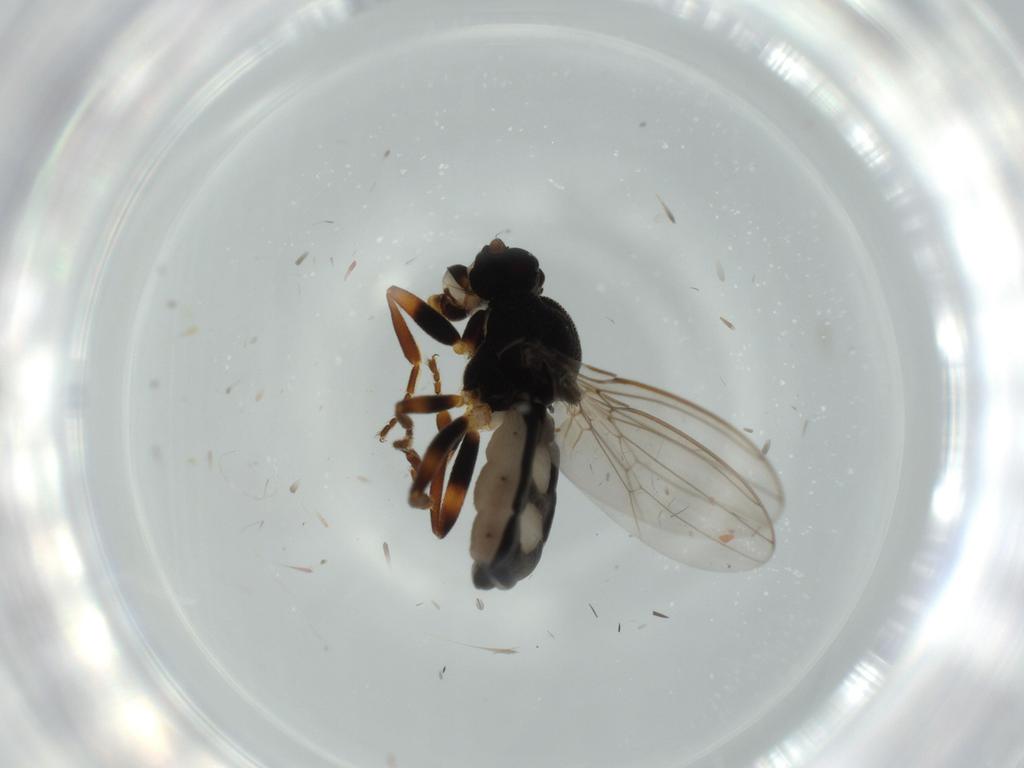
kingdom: Animalia
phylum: Arthropoda
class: Insecta
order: Diptera
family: Sphaeroceridae
